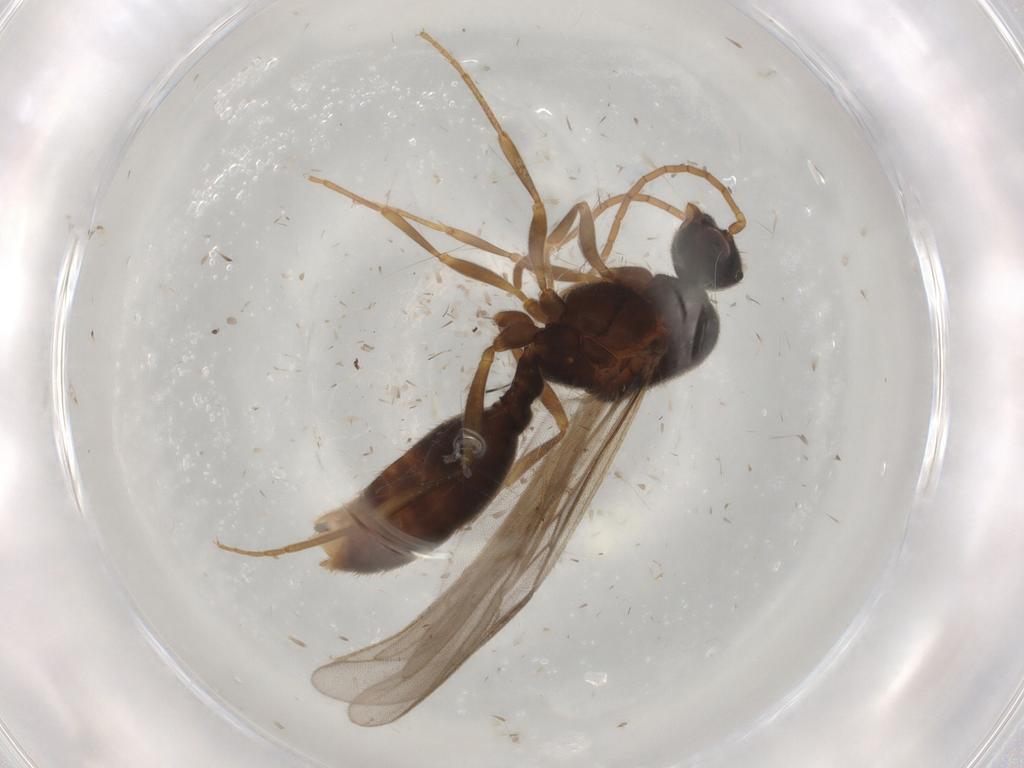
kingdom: Animalia
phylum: Arthropoda
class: Insecta
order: Hymenoptera
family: Formicidae
